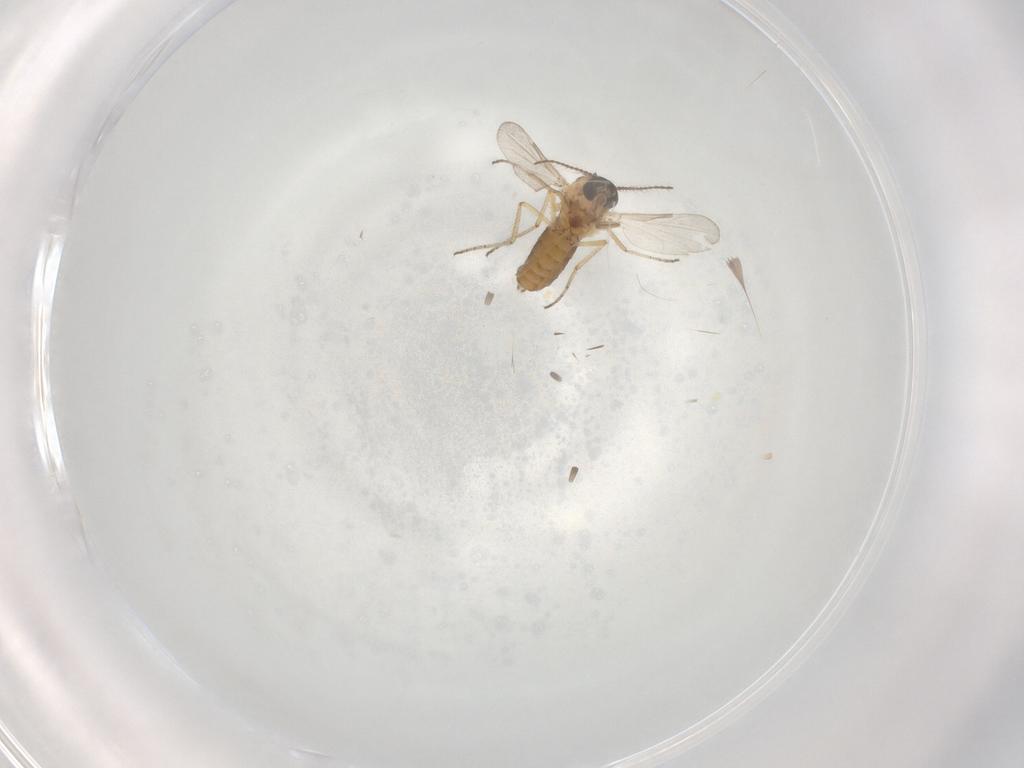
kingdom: Animalia
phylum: Arthropoda
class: Insecta
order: Diptera
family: Ceratopogonidae
